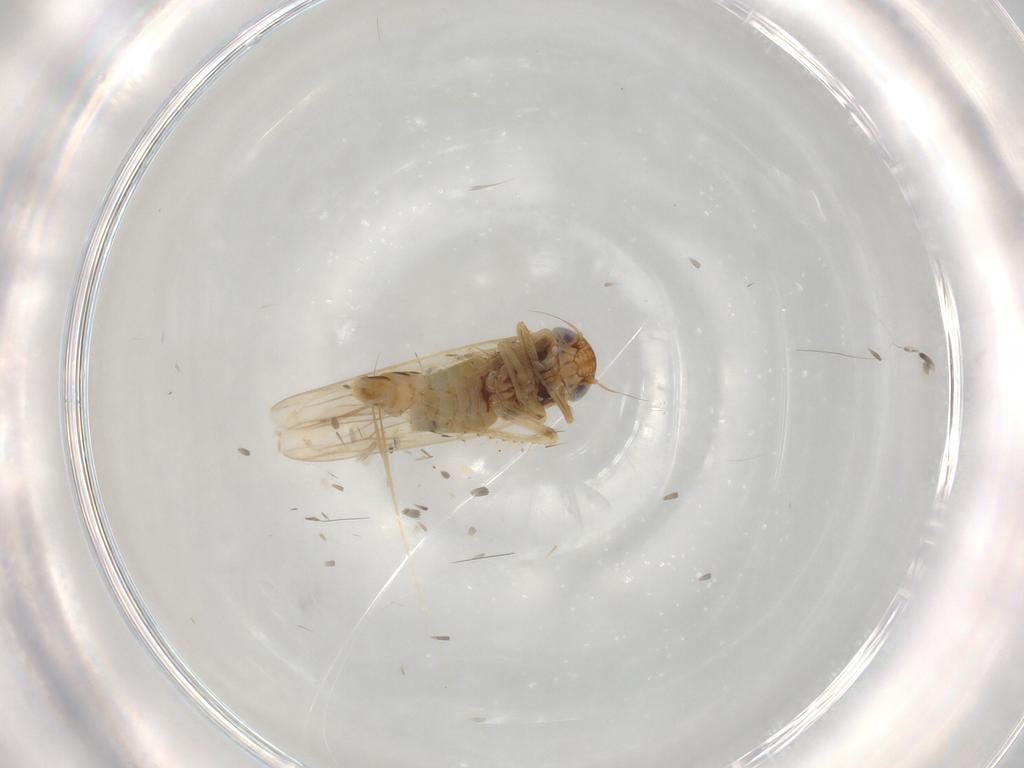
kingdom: Animalia
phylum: Arthropoda
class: Insecta
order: Hemiptera
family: Cicadellidae
